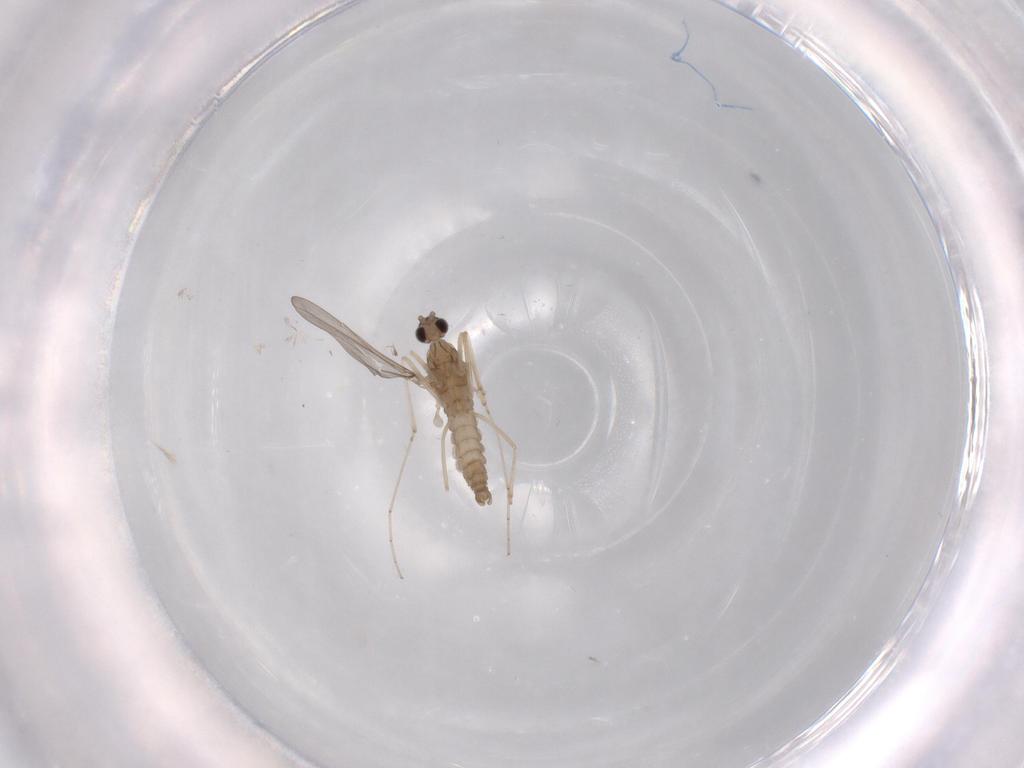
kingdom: Animalia
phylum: Arthropoda
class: Insecta
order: Diptera
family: Cecidomyiidae
